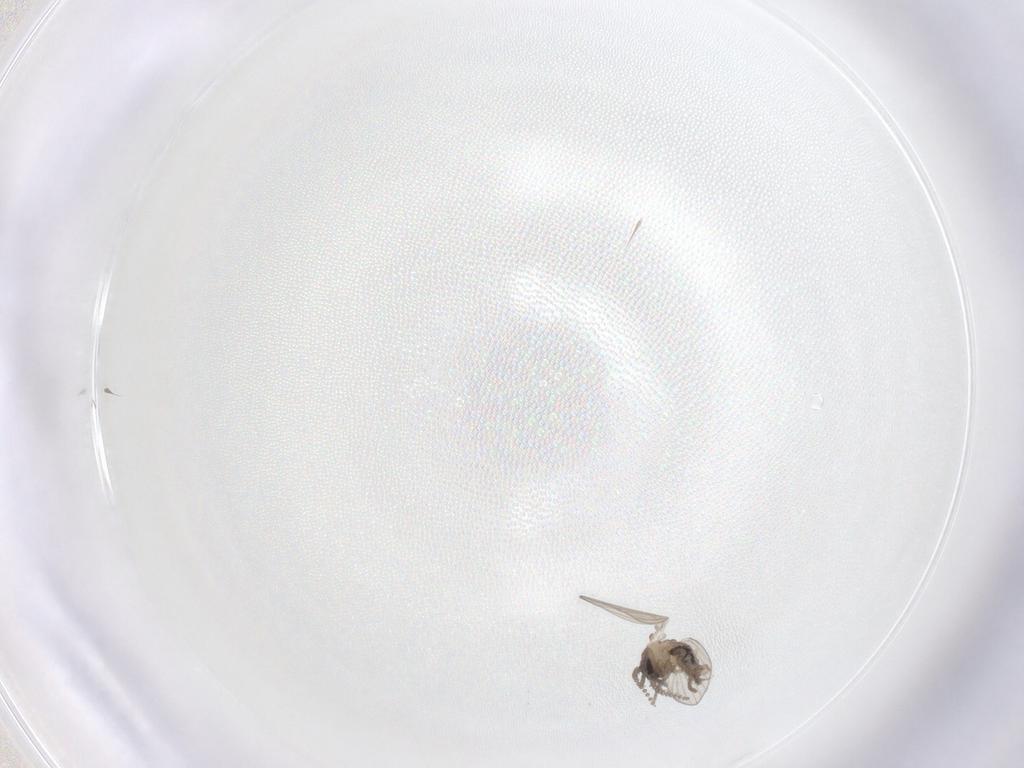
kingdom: Animalia
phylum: Arthropoda
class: Insecta
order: Diptera
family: Psychodidae
